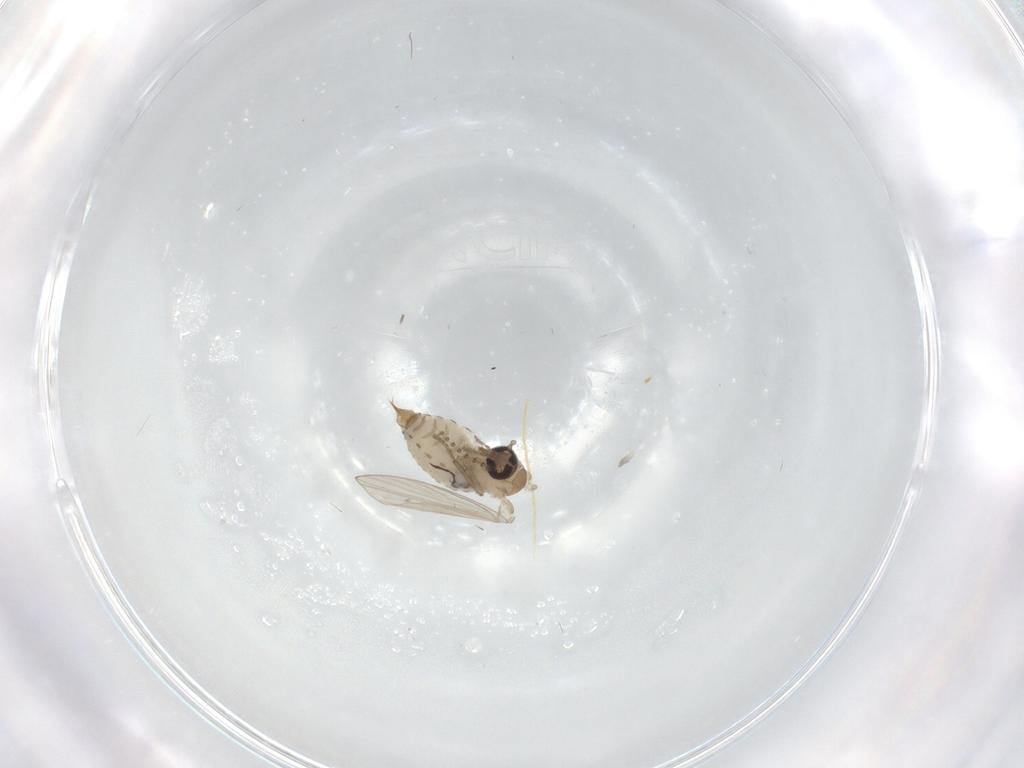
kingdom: Animalia
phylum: Arthropoda
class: Insecta
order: Diptera
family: Psychodidae
